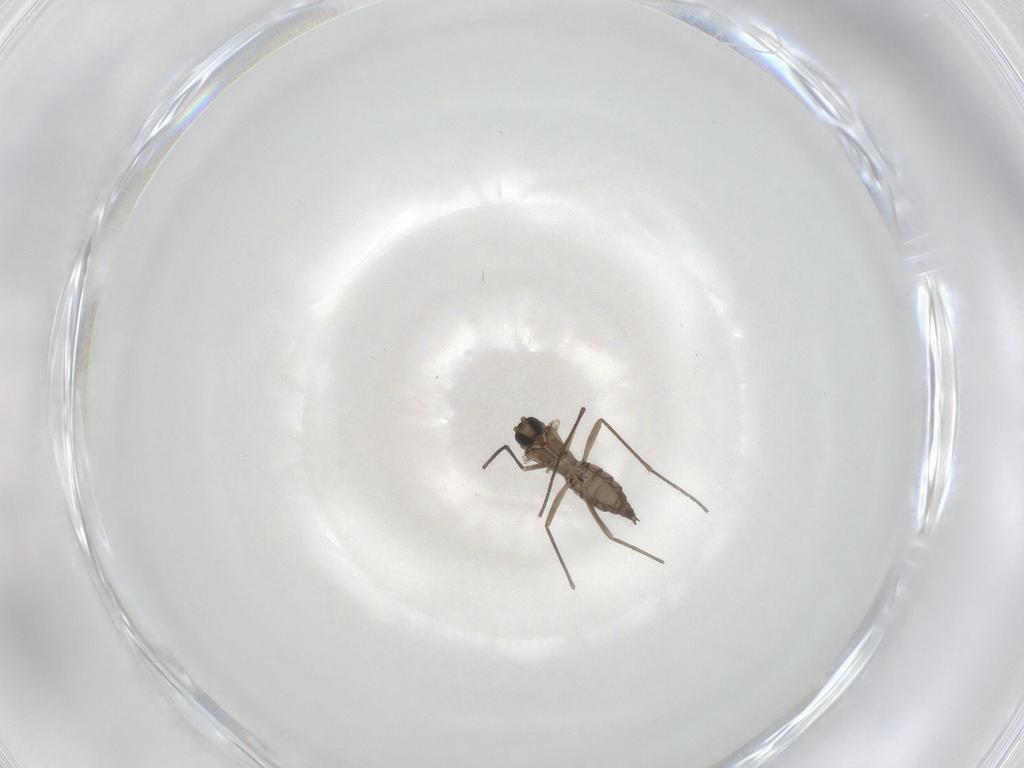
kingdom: Animalia
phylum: Arthropoda
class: Insecta
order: Diptera
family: Sciaridae
